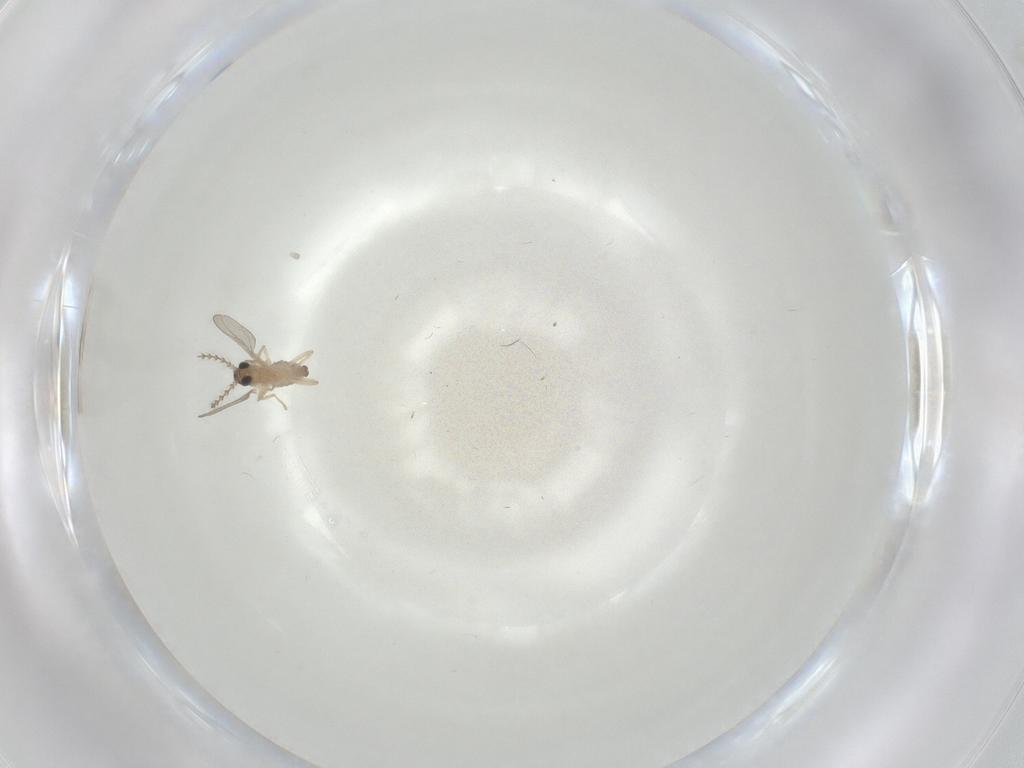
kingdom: Animalia
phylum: Arthropoda
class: Insecta
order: Diptera
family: Cecidomyiidae
